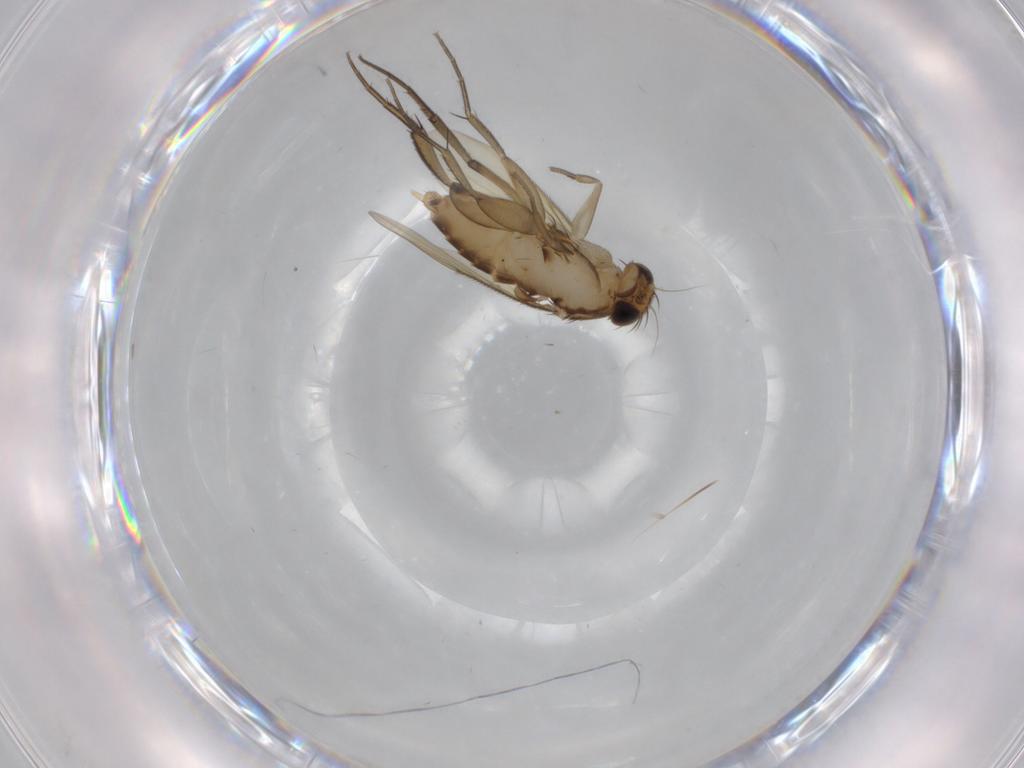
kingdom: Animalia
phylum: Arthropoda
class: Insecta
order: Diptera
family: Phoridae
